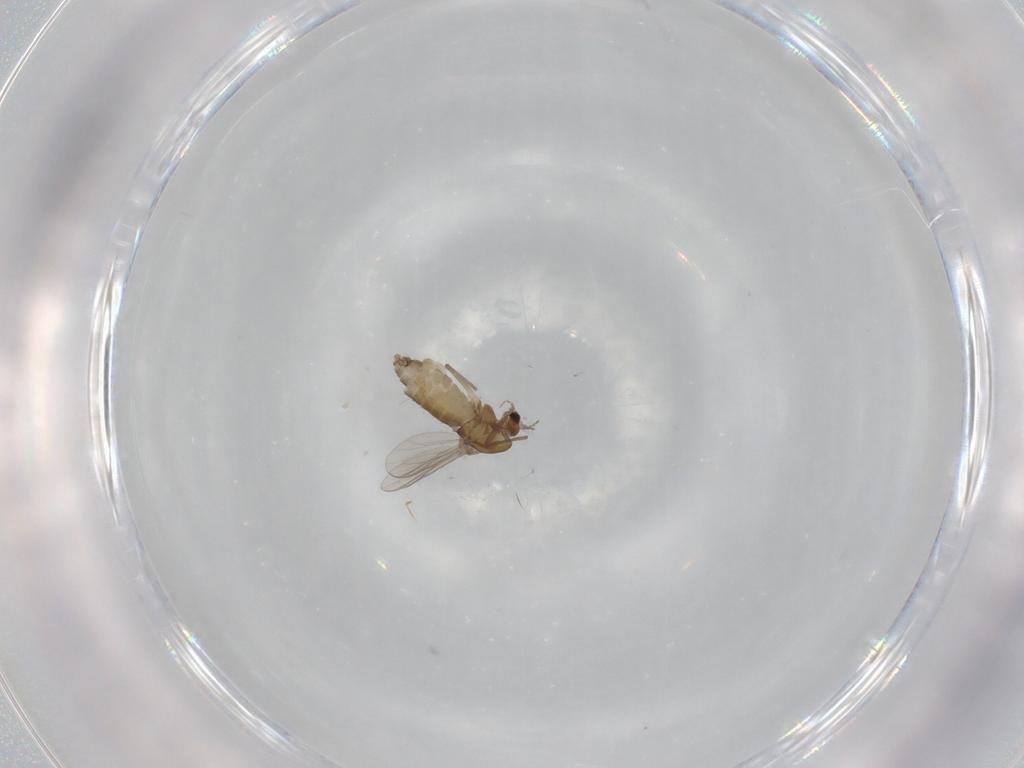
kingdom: Animalia
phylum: Arthropoda
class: Insecta
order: Diptera
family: Chironomidae
